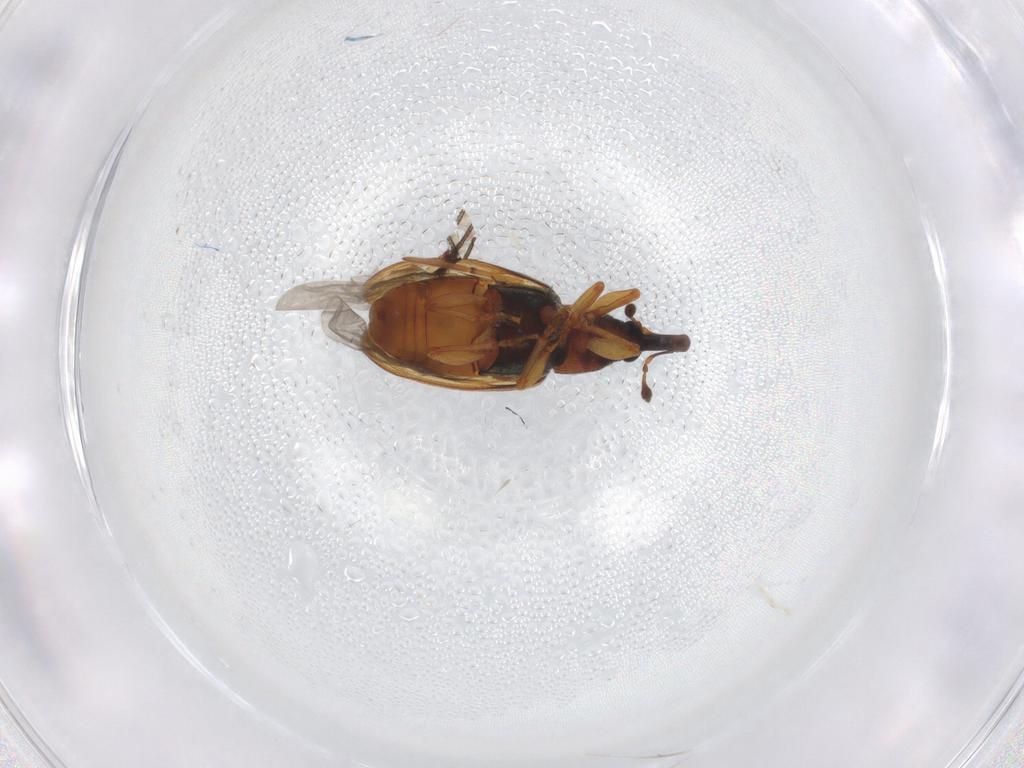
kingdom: Animalia
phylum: Arthropoda
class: Insecta
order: Coleoptera
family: Curculionidae
